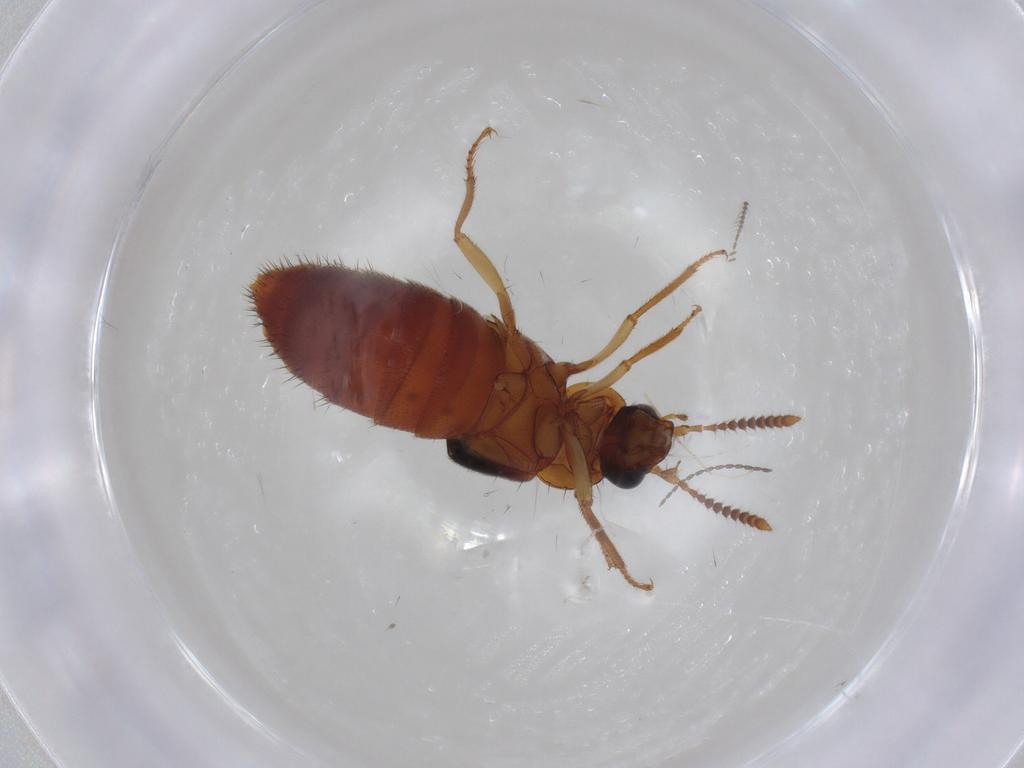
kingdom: Animalia
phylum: Arthropoda
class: Insecta
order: Coleoptera
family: Staphylinidae
